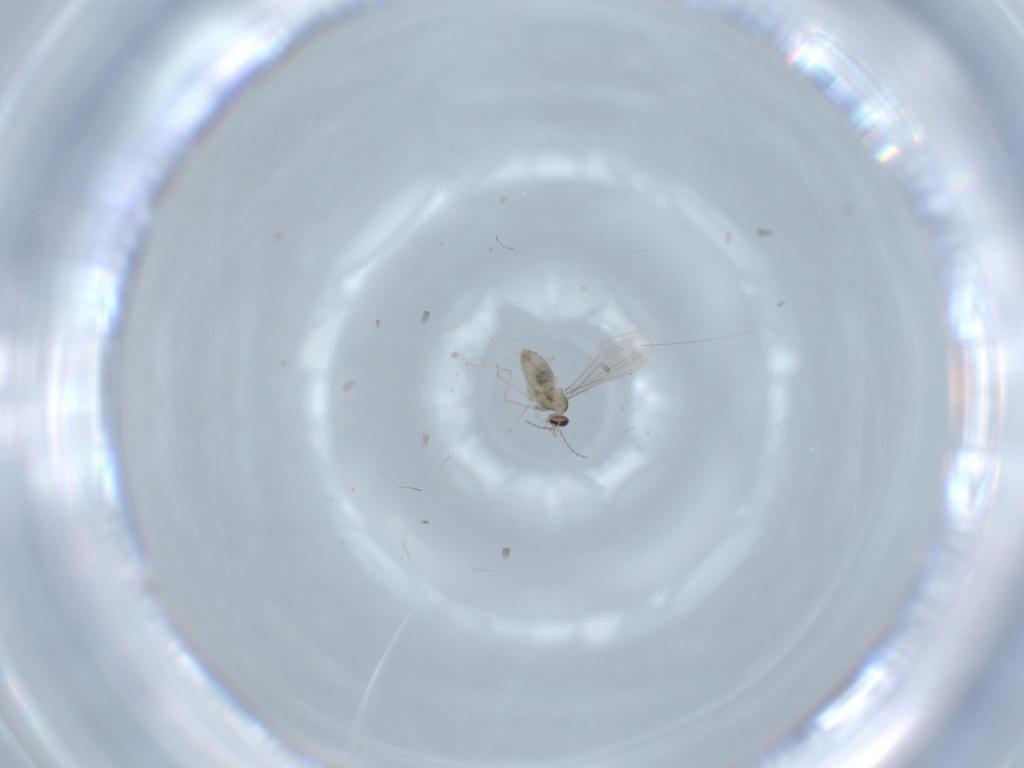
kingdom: Animalia
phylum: Arthropoda
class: Insecta
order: Diptera
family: Cecidomyiidae
